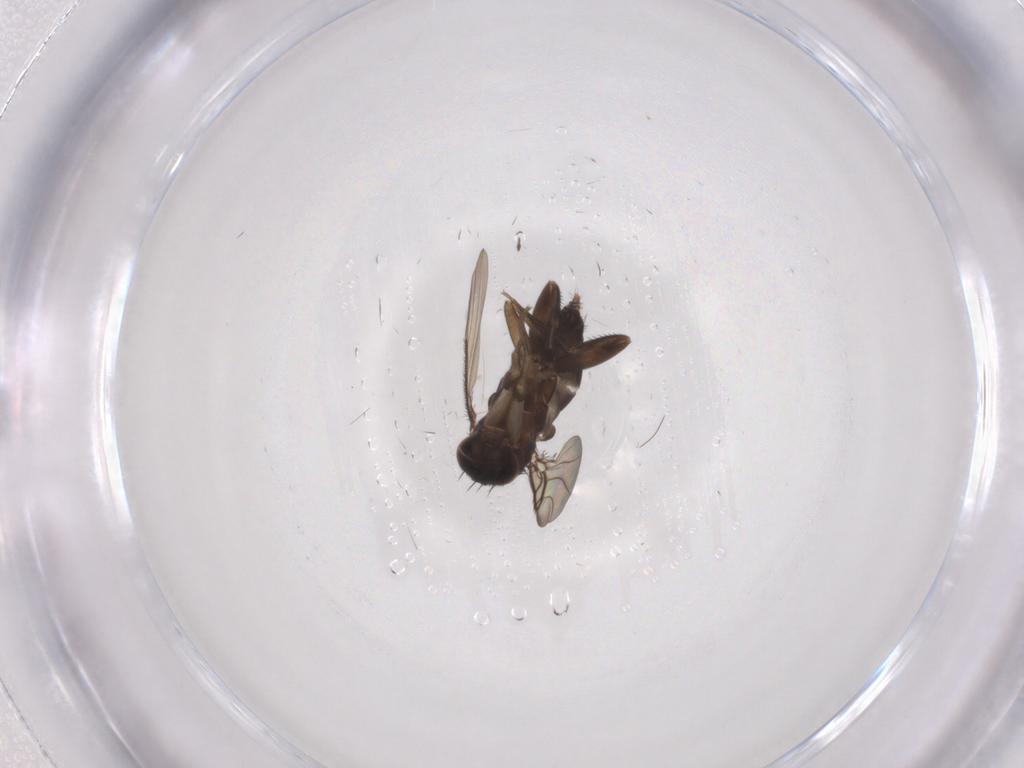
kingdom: Animalia
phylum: Arthropoda
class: Insecta
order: Diptera
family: Phoridae
